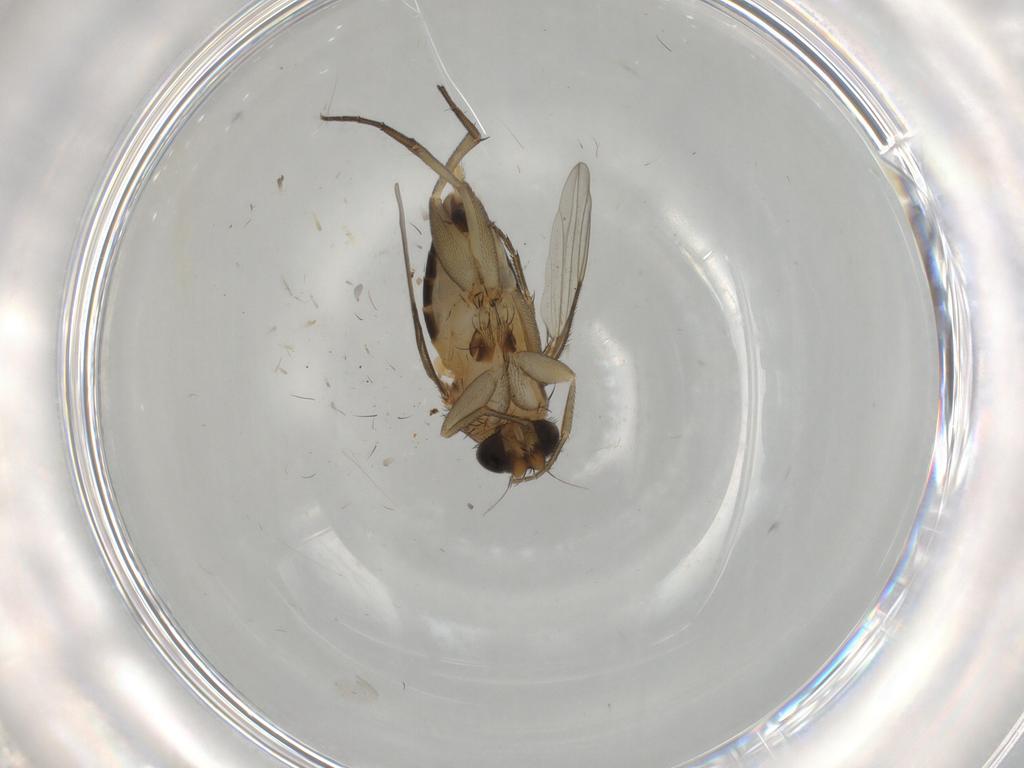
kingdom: Animalia
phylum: Arthropoda
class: Insecta
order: Diptera
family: Phoridae
